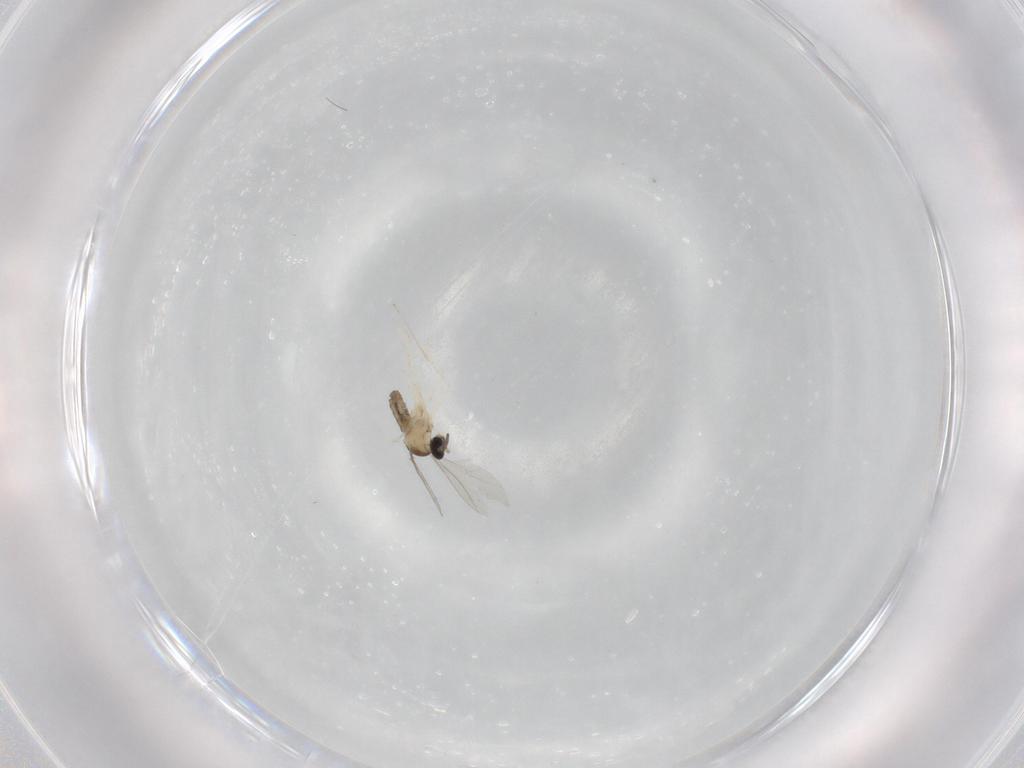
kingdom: Animalia
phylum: Arthropoda
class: Insecta
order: Diptera
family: Cecidomyiidae
